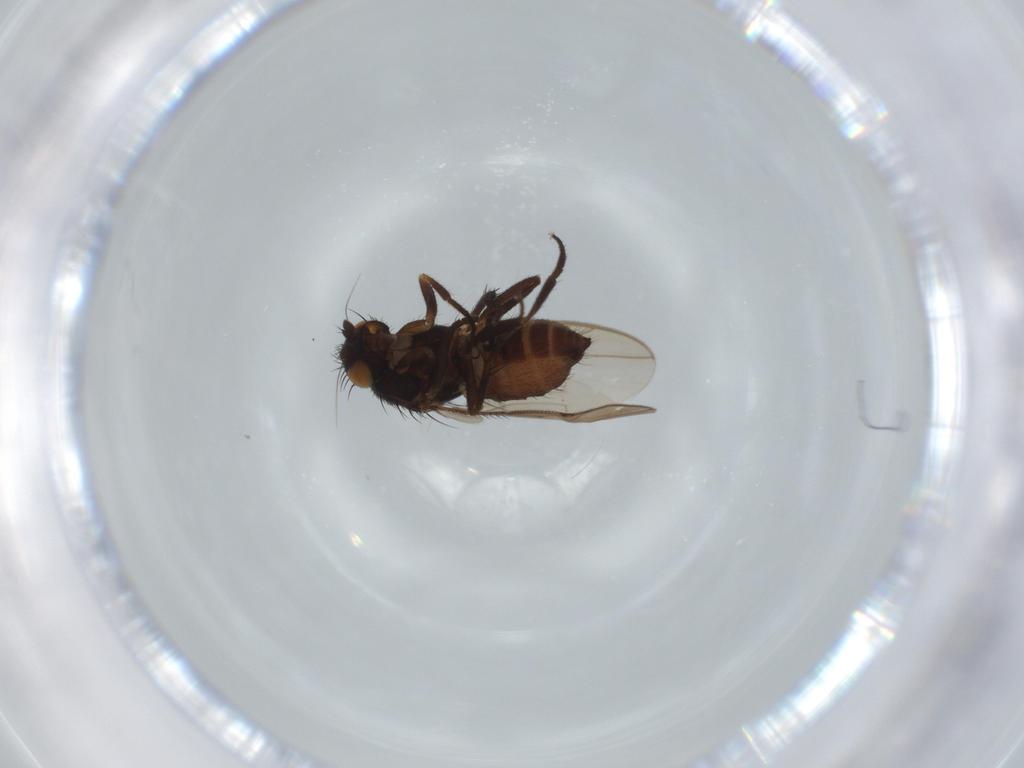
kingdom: Animalia
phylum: Arthropoda
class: Insecta
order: Diptera
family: Sphaeroceridae
